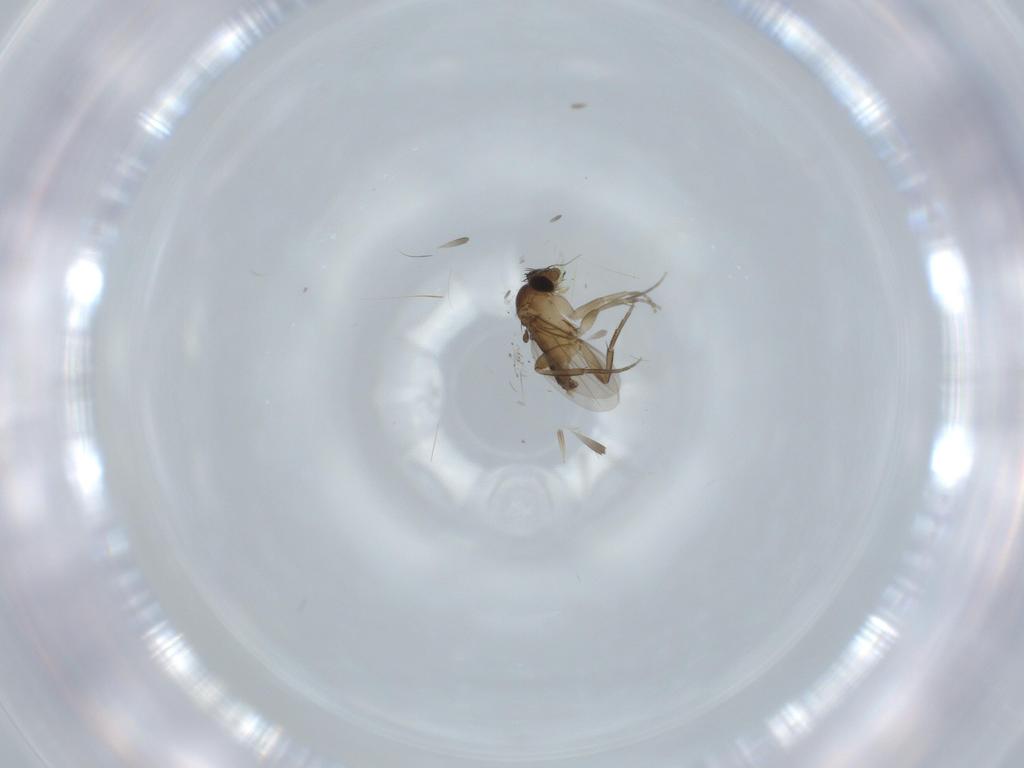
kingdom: Animalia
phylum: Arthropoda
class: Insecta
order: Diptera
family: Phoridae
